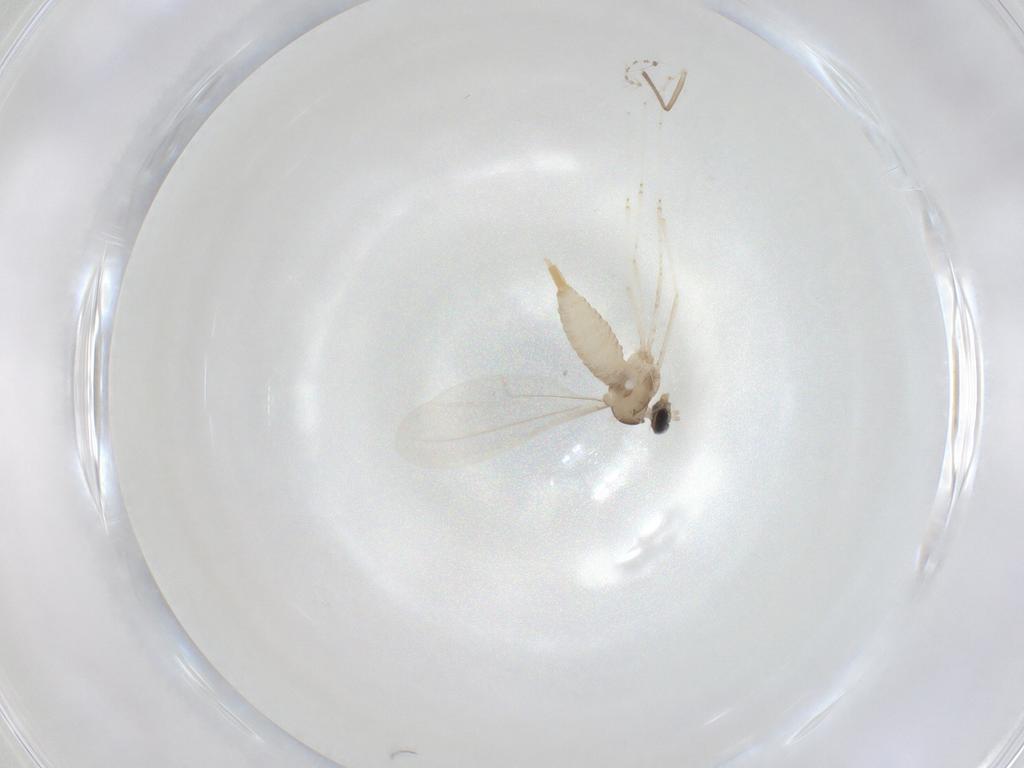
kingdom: Animalia
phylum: Arthropoda
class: Insecta
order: Diptera
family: Cecidomyiidae
